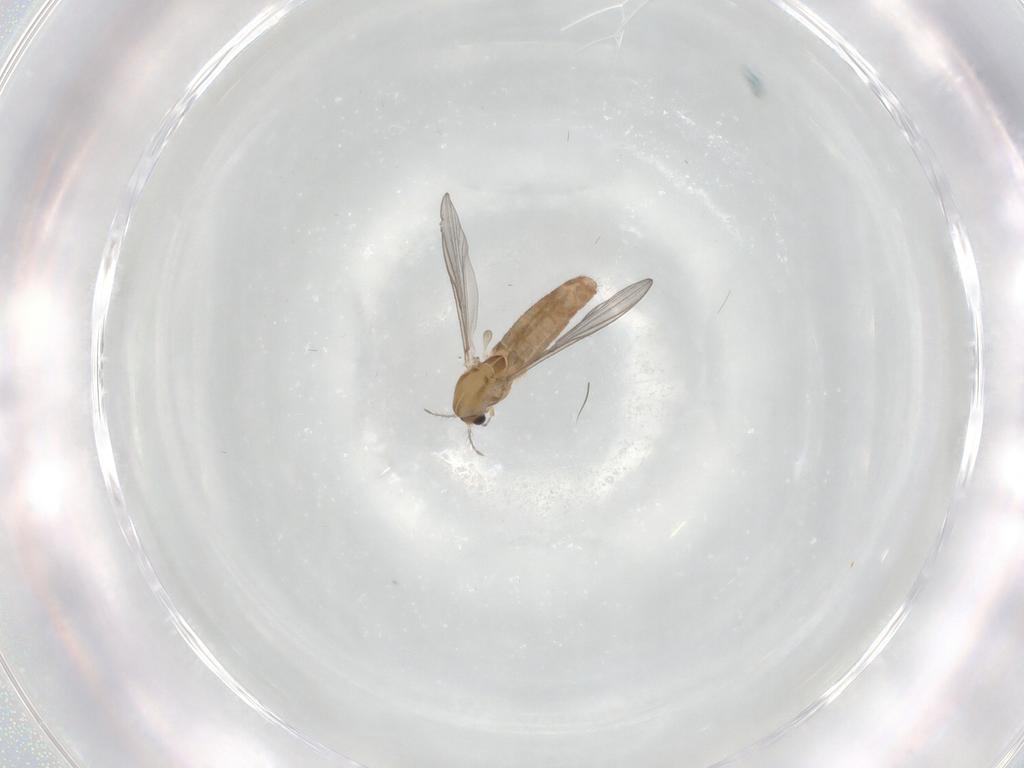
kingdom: Animalia
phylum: Arthropoda
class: Insecta
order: Diptera
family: Chironomidae
